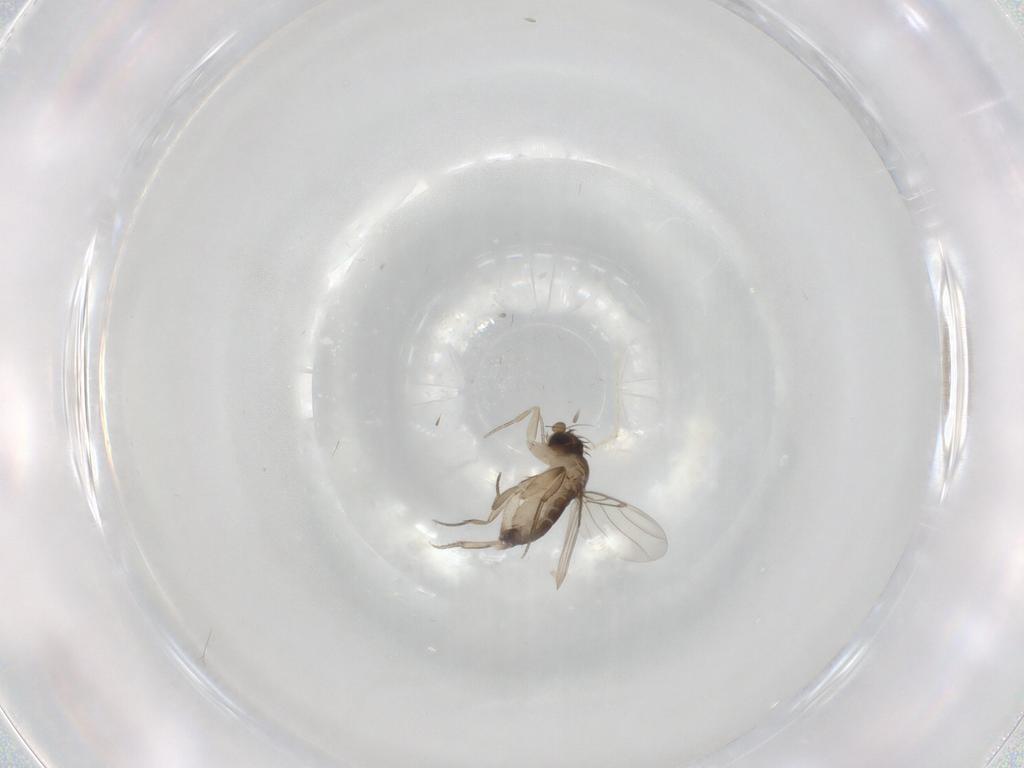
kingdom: Animalia
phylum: Arthropoda
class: Insecta
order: Diptera
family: Phoridae
